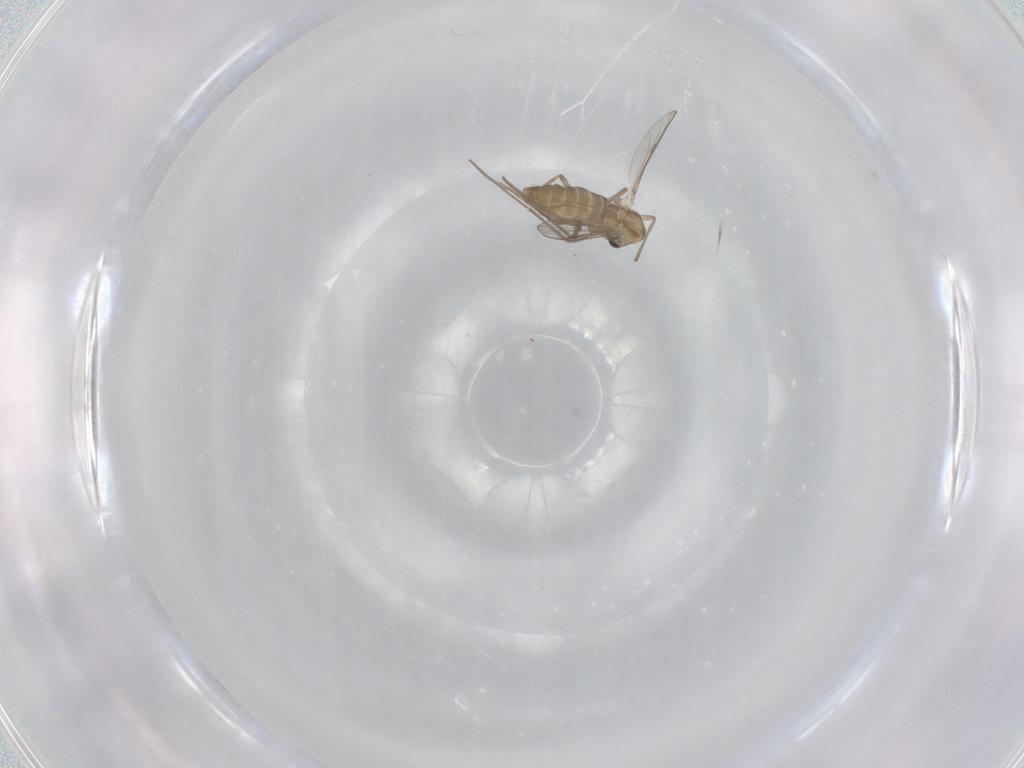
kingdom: Animalia
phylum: Arthropoda
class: Insecta
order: Diptera
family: Chironomidae
